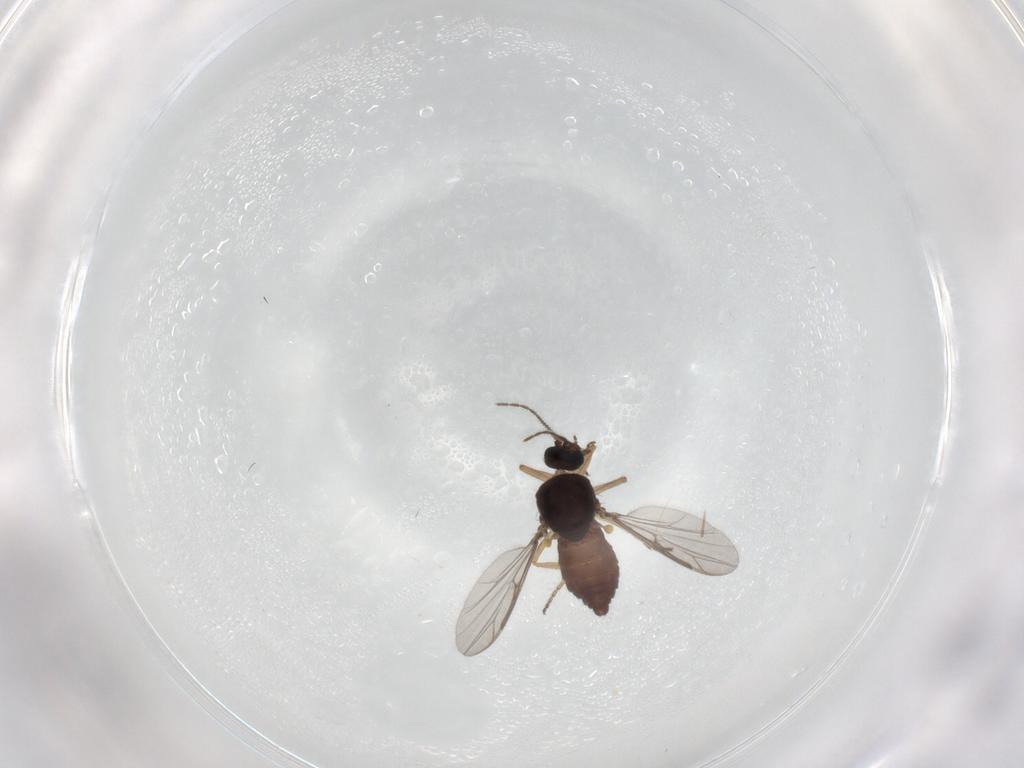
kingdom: Animalia
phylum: Arthropoda
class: Insecta
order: Diptera
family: Ceratopogonidae
